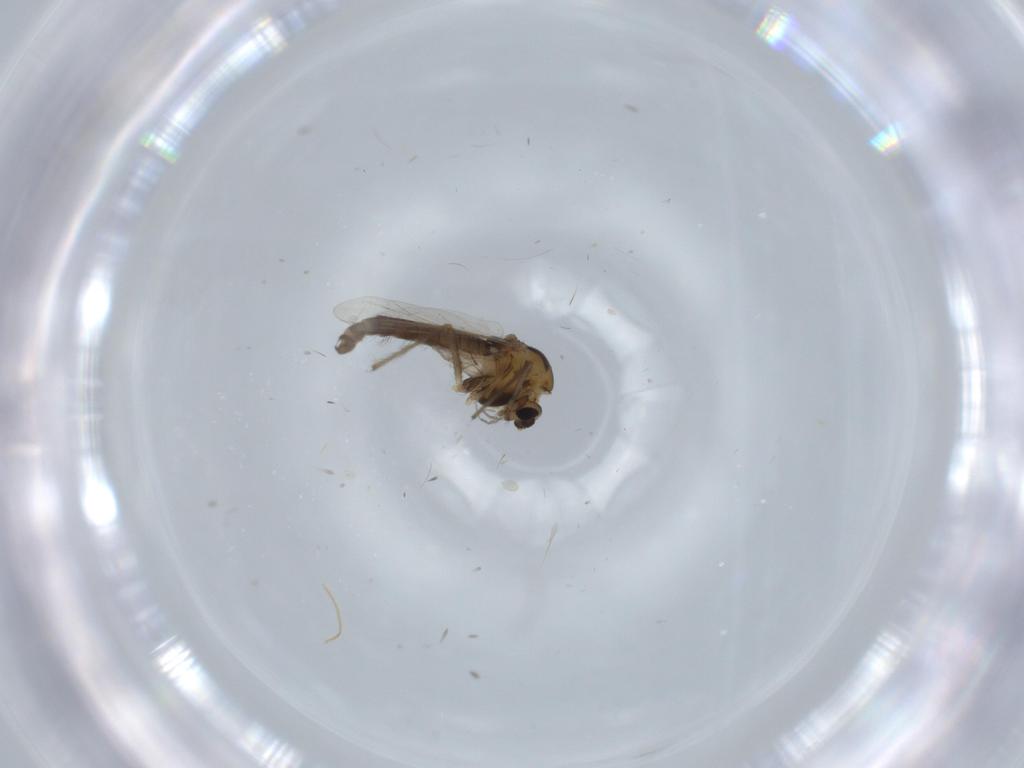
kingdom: Animalia
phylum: Arthropoda
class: Insecta
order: Diptera
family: Chironomidae
